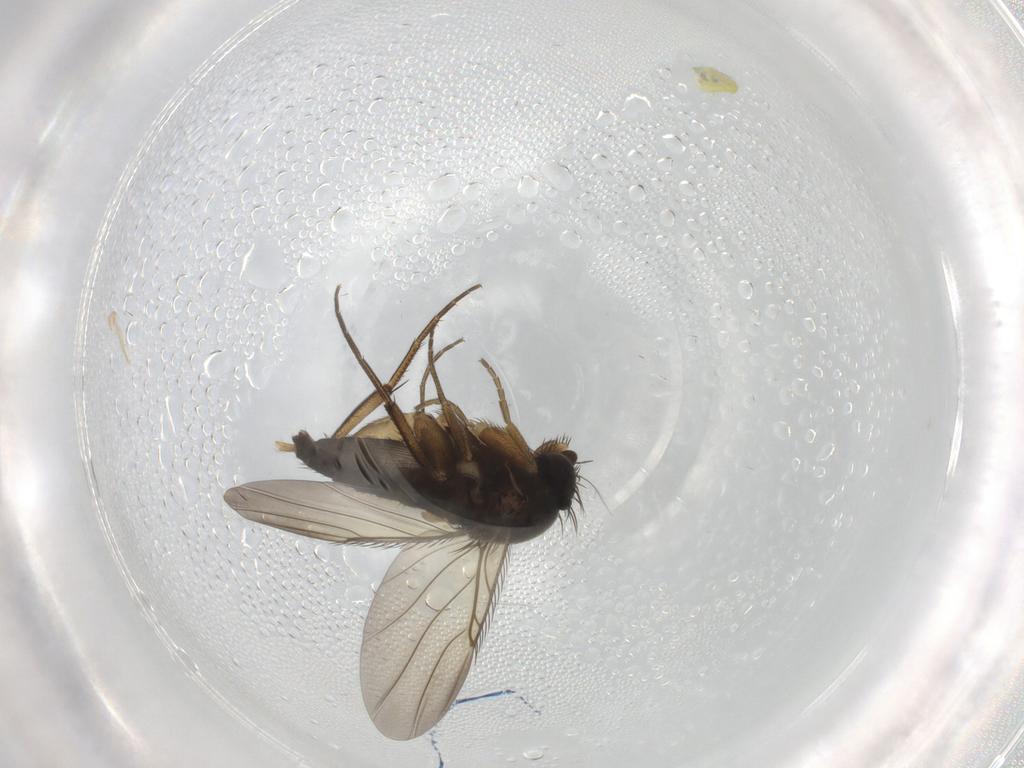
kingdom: Animalia
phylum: Arthropoda
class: Insecta
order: Diptera
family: Phoridae
